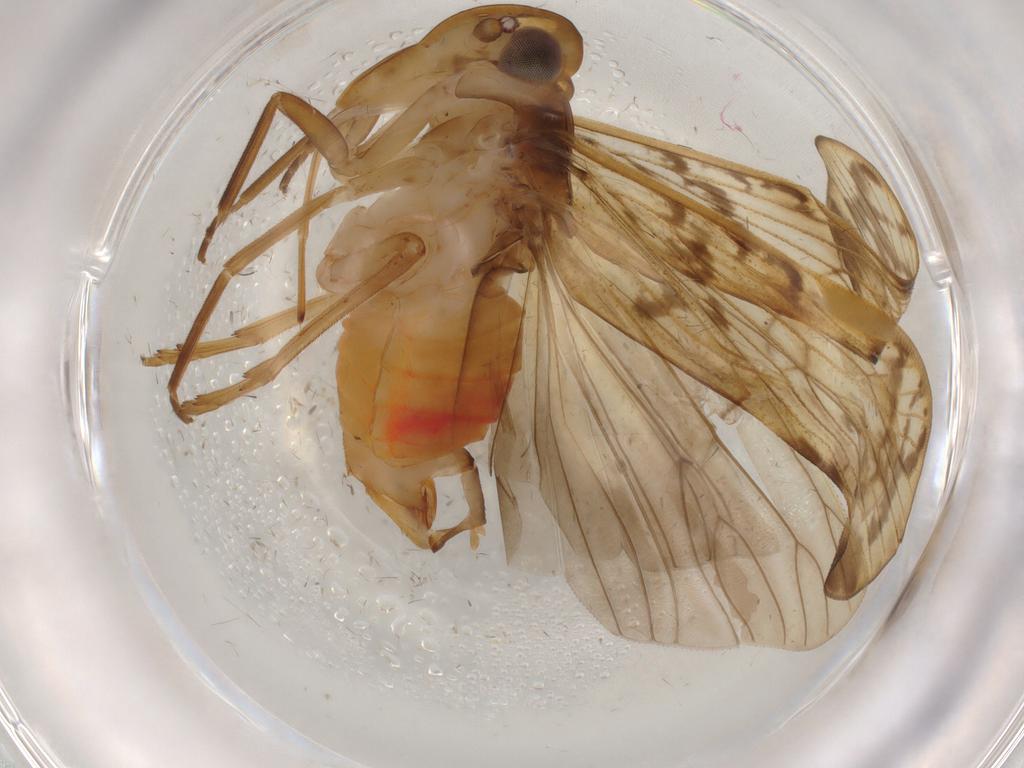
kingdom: Animalia
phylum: Arthropoda
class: Insecta
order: Hemiptera
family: Cixiidae
